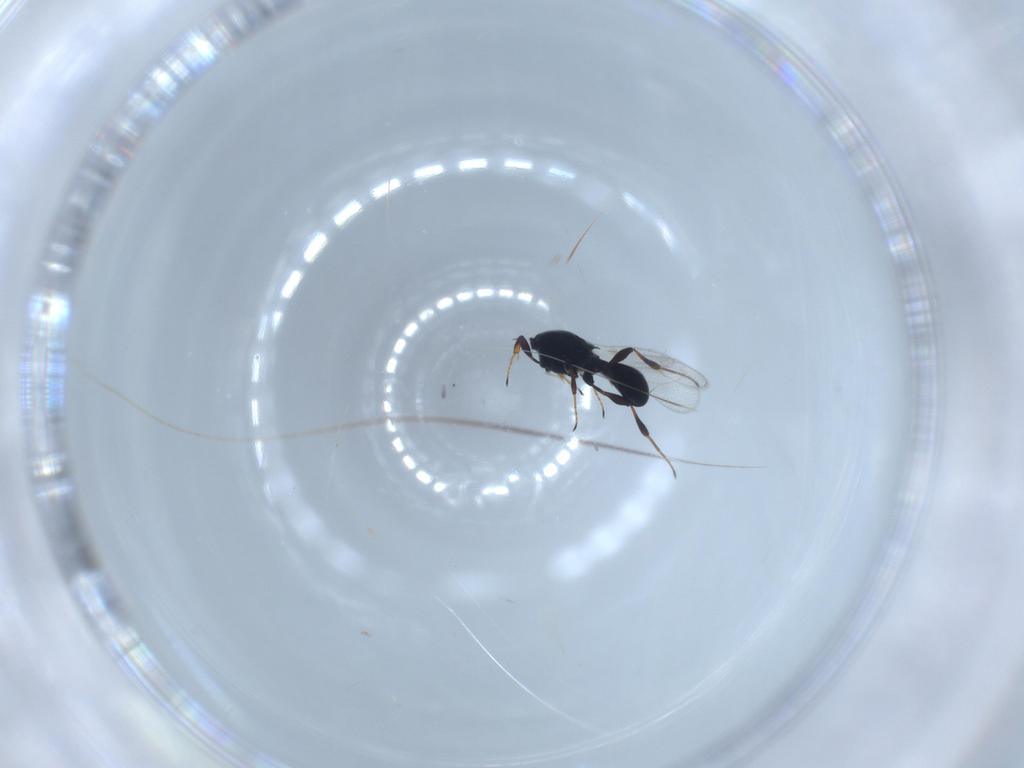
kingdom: Animalia
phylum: Arthropoda
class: Insecta
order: Hymenoptera
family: Platygastridae
